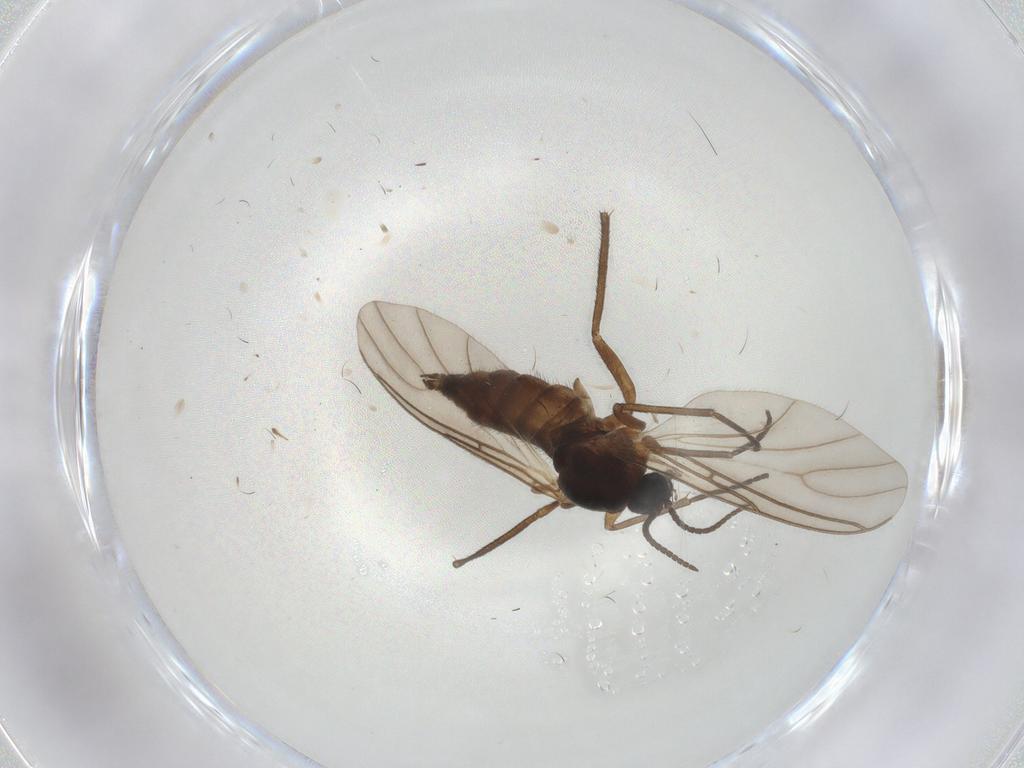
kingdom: Animalia
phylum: Arthropoda
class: Insecta
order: Diptera
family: Sciaridae
